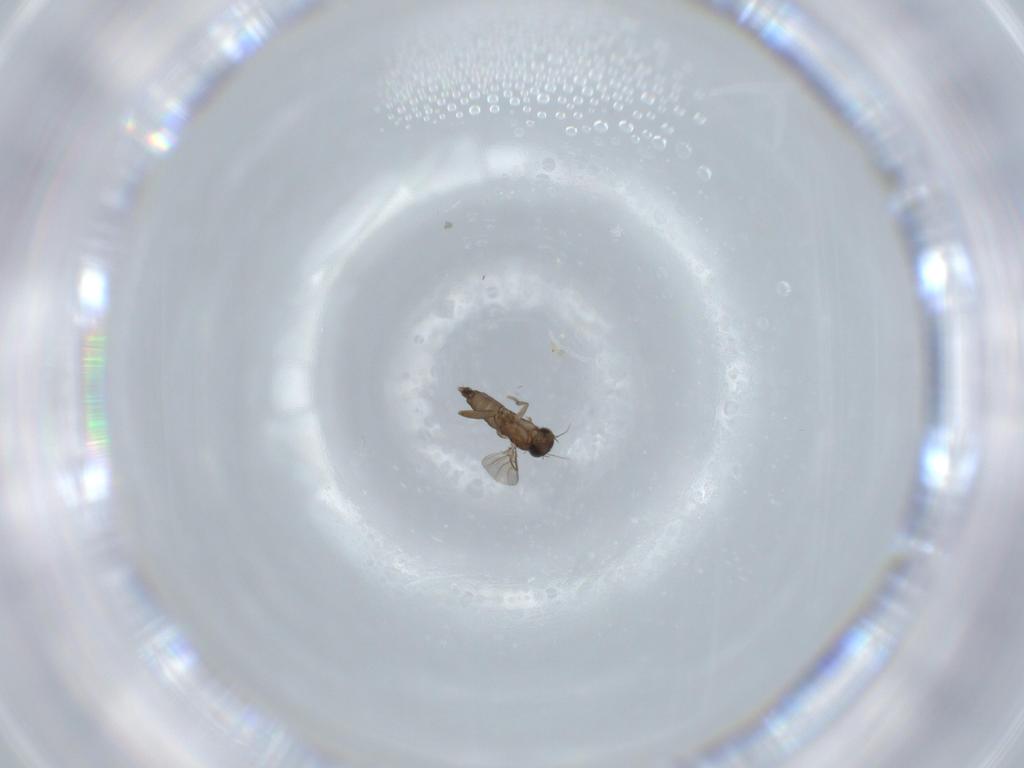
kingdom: Animalia
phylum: Arthropoda
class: Insecta
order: Diptera
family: Phoridae
